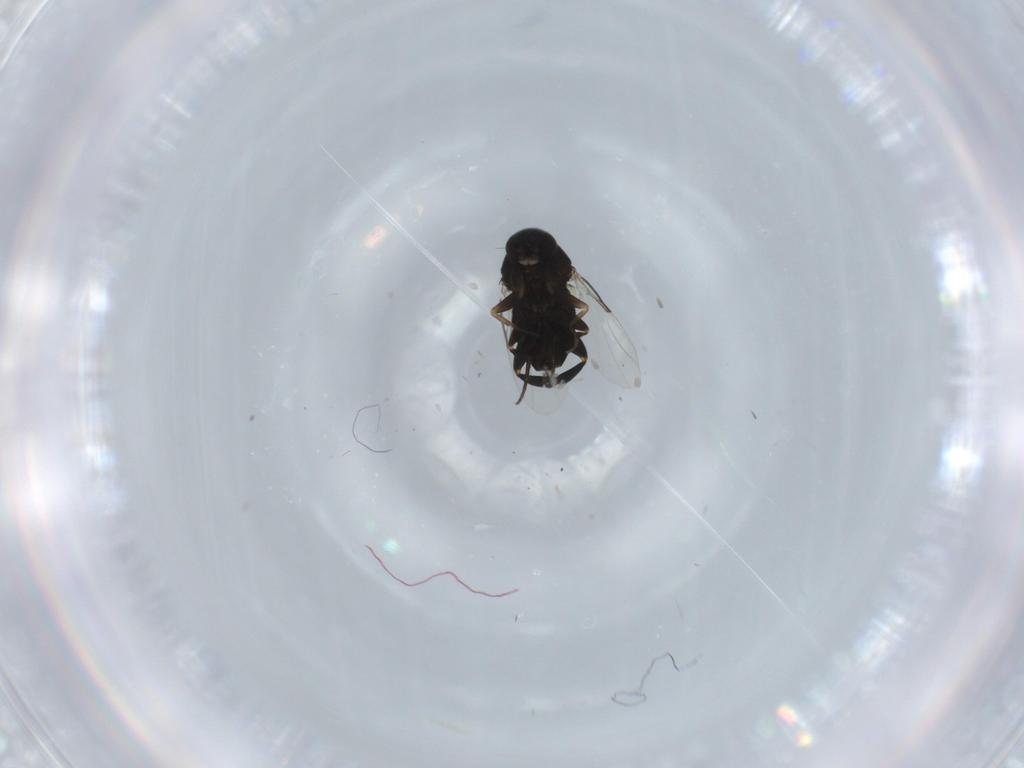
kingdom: Animalia
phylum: Arthropoda
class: Insecta
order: Diptera
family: Phoridae
